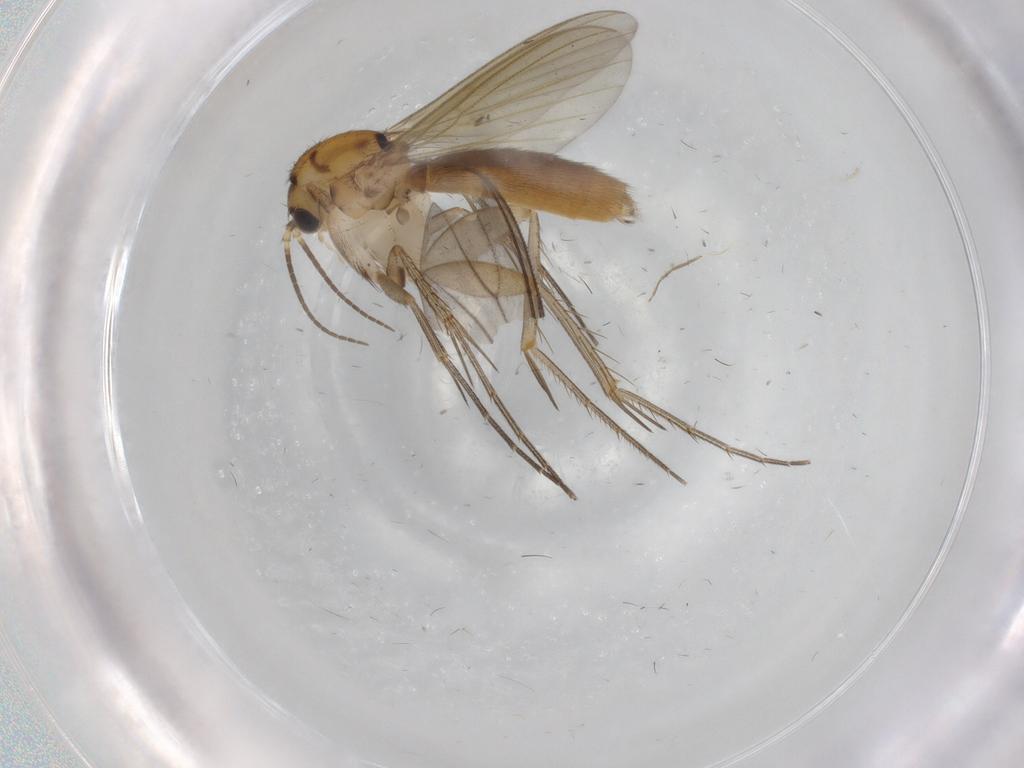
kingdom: Animalia
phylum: Arthropoda
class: Insecta
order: Diptera
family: Mycetophilidae
